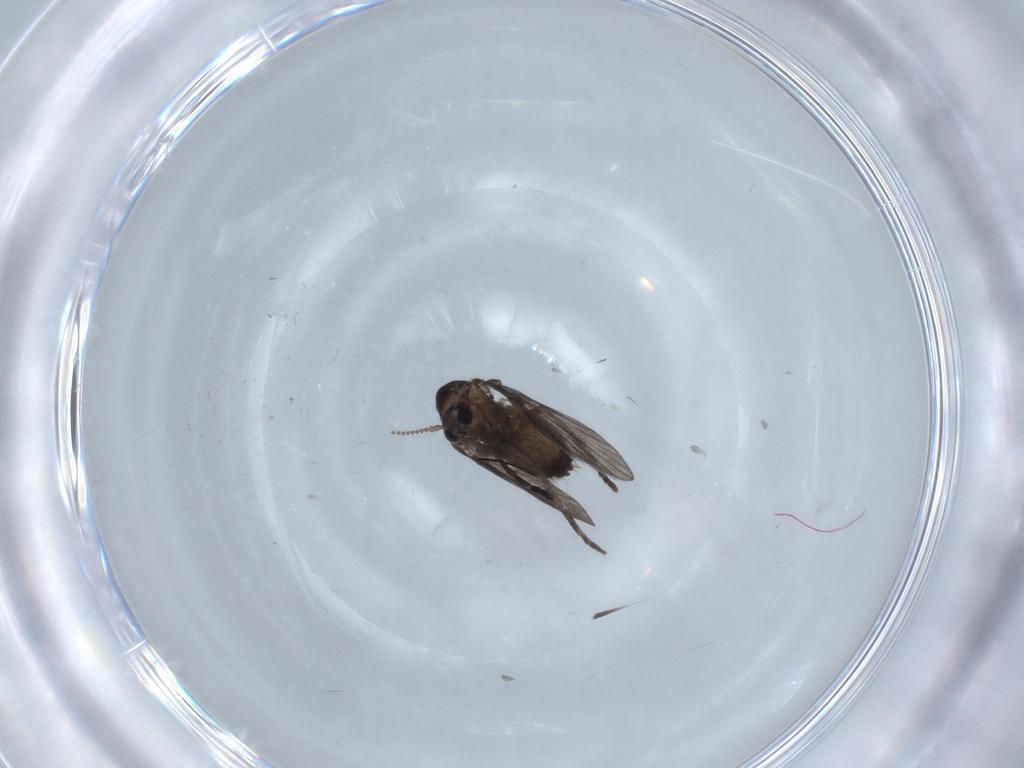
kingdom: Animalia
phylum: Arthropoda
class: Insecta
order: Diptera
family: Psychodidae
